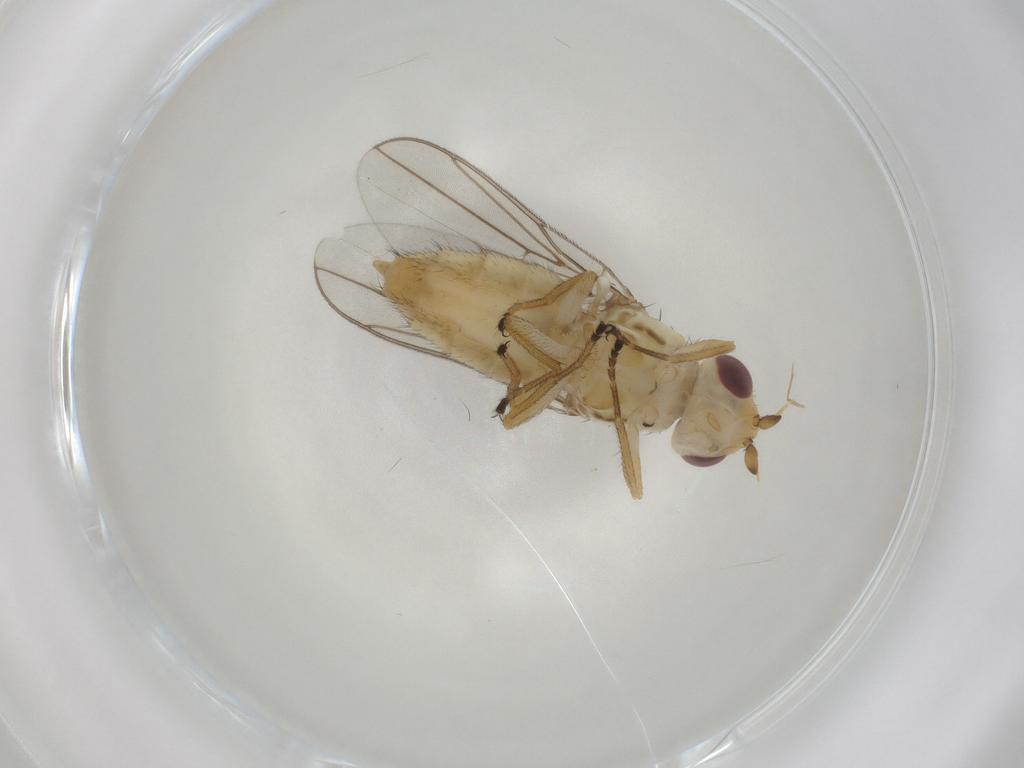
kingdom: Animalia
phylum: Arthropoda
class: Insecta
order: Diptera
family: Chloropidae
